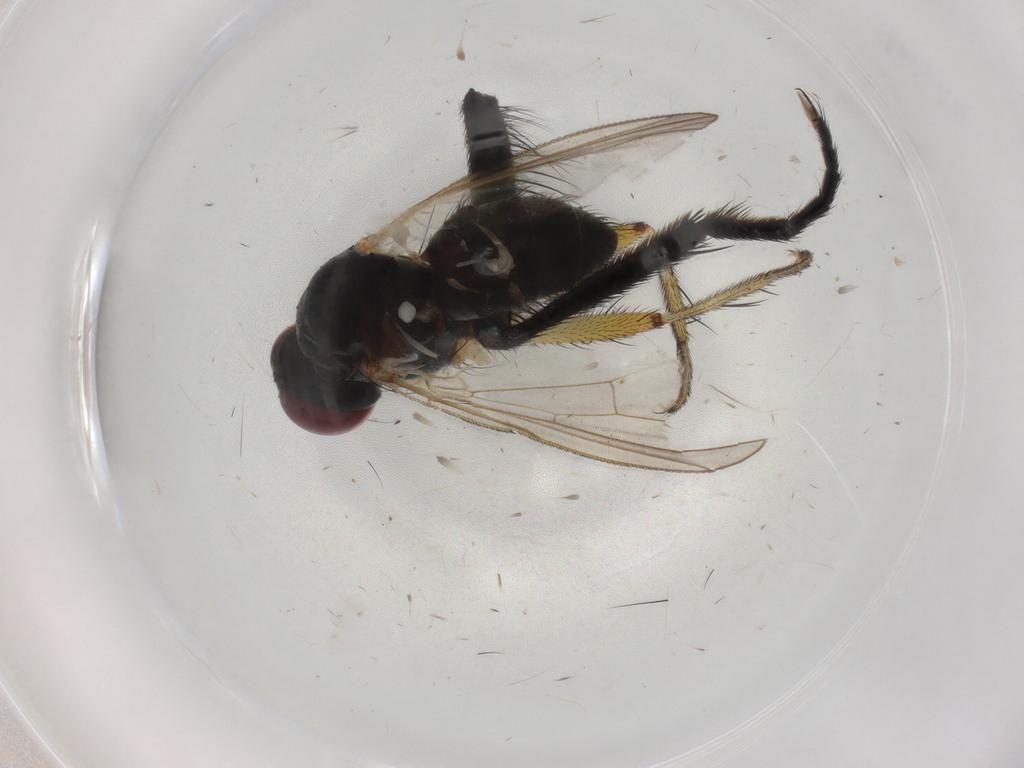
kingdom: Animalia
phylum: Arthropoda
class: Insecta
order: Diptera
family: Muscidae
